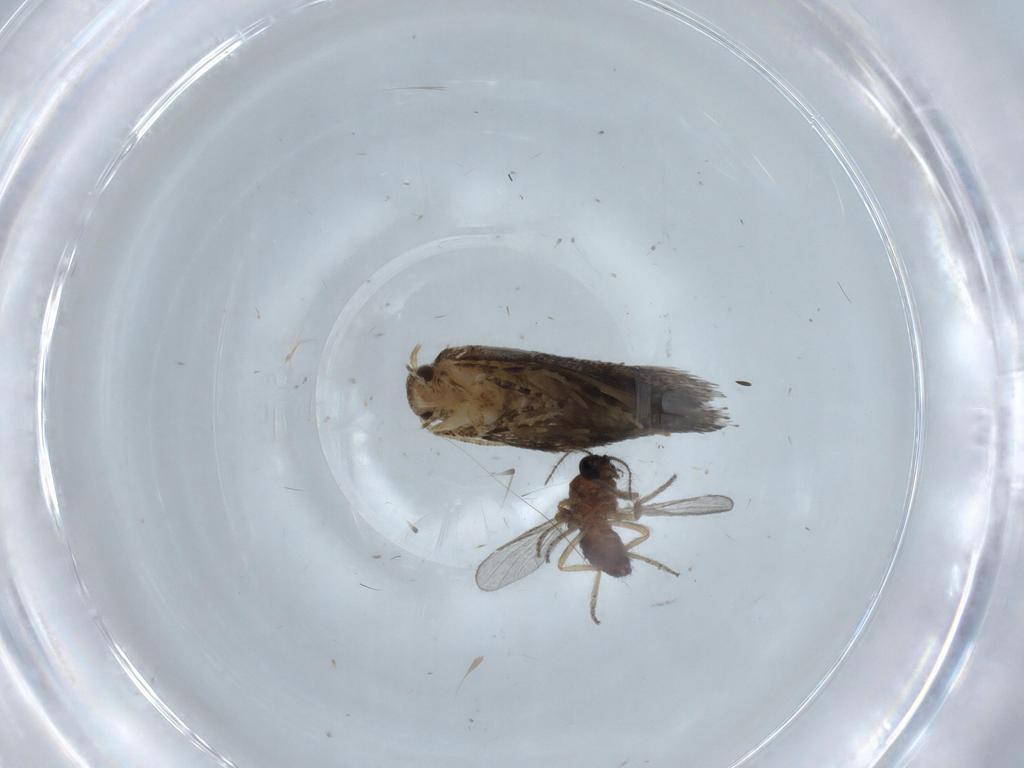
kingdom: Animalia
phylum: Arthropoda
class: Insecta
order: Diptera
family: Ceratopogonidae
